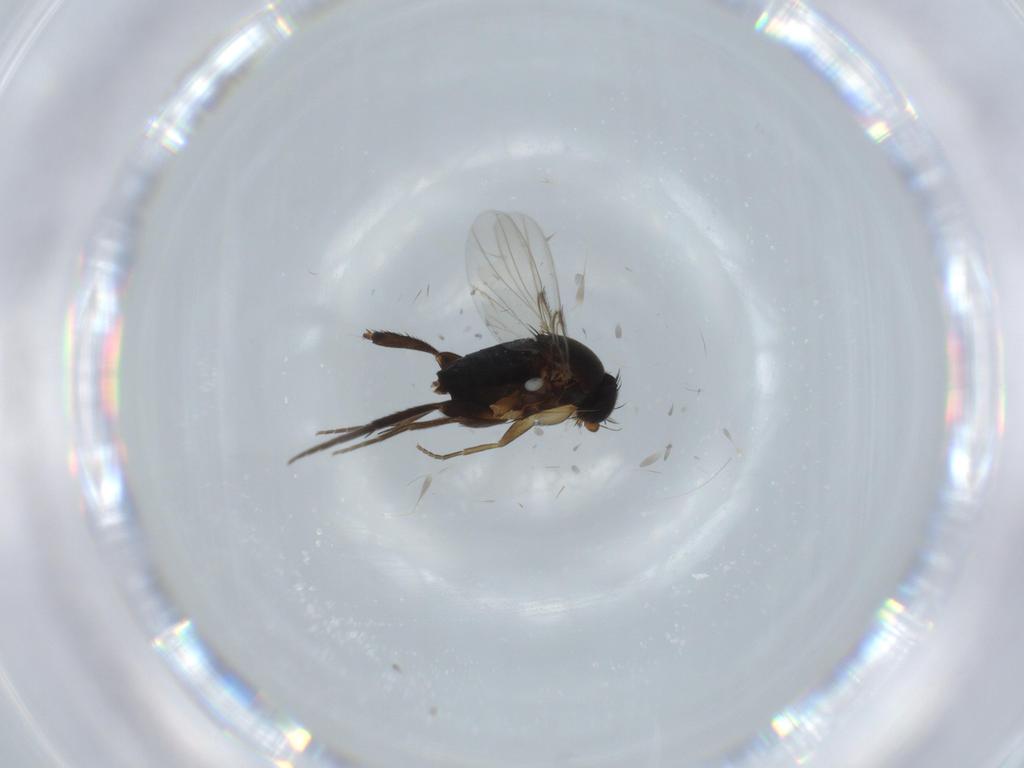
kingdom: Animalia
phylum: Arthropoda
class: Insecta
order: Diptera
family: Phoridae
